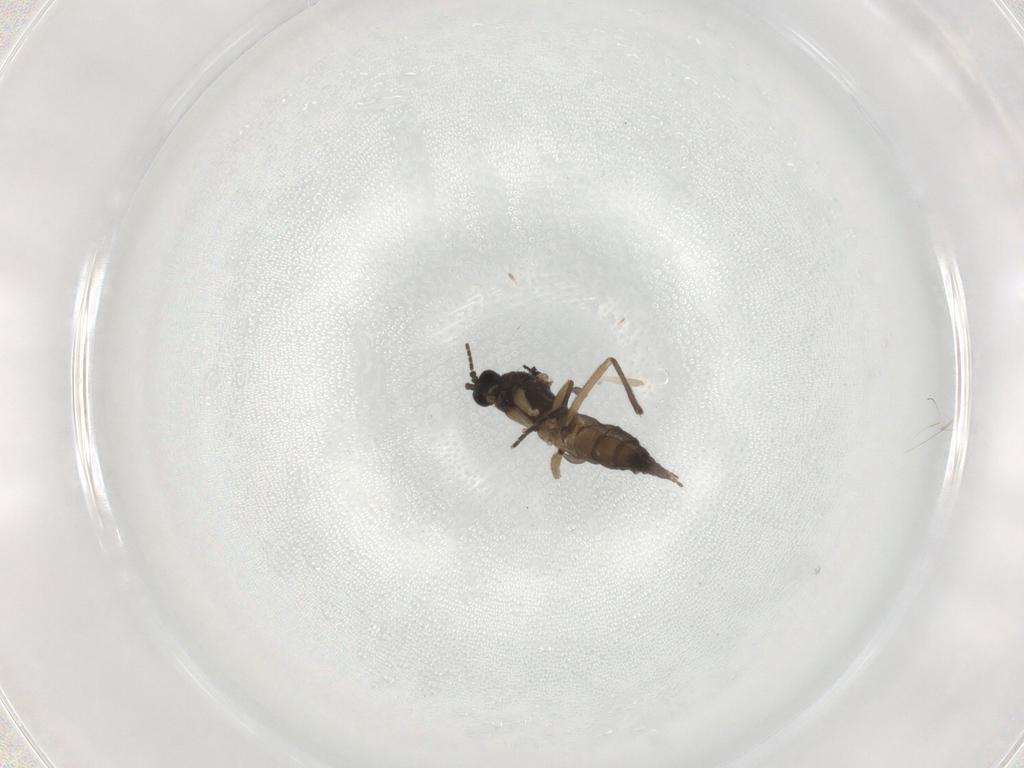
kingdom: Animalia
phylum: Arthropoda
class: Insecta
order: Diptera
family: Sciaridae
